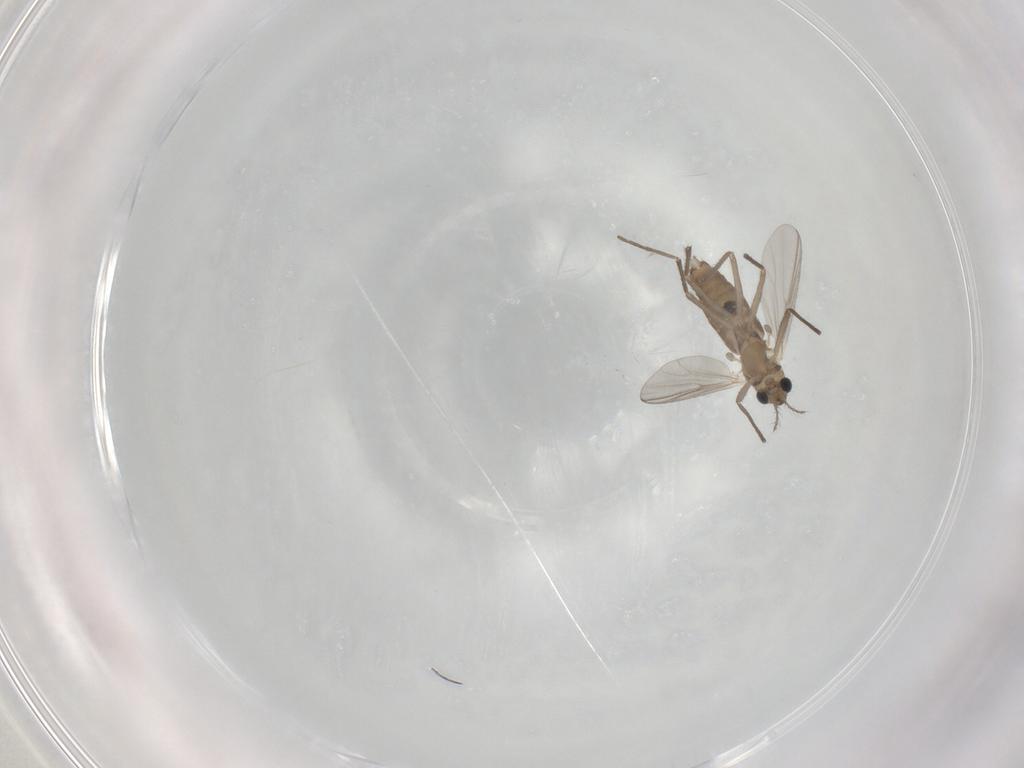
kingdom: Animalia
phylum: Arthropoda
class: Insecta
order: Diptera
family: Chironomidae
